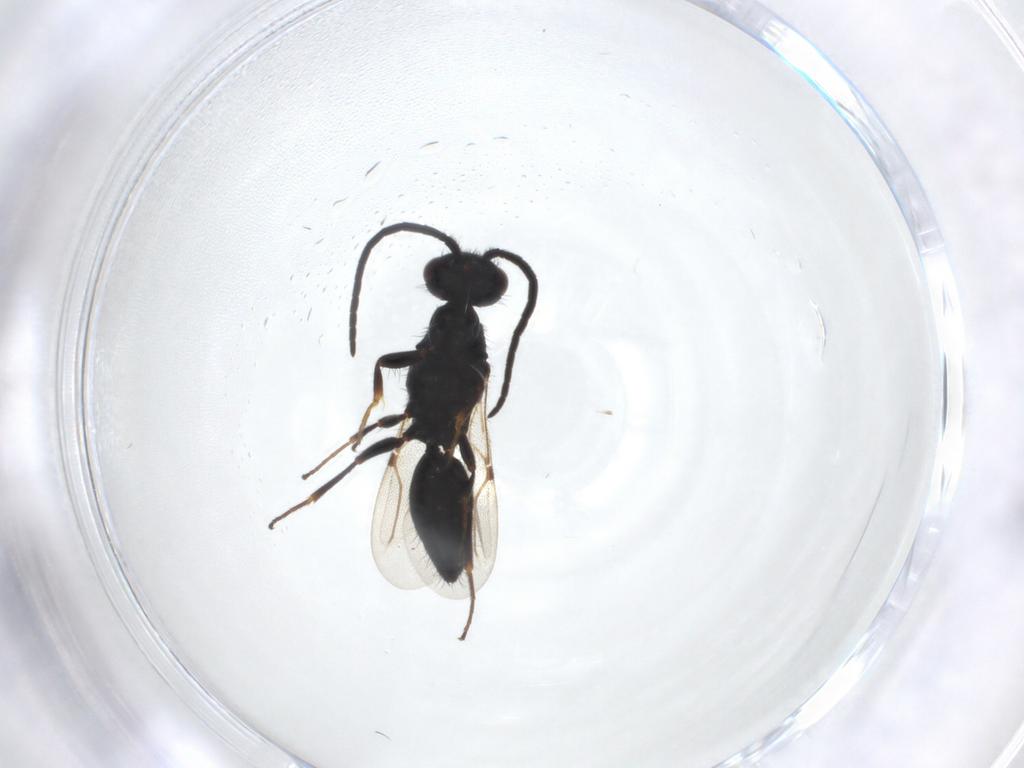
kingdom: Animalia
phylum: Arthropoda
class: Insecta
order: Hymenoptera
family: Bethylidae
